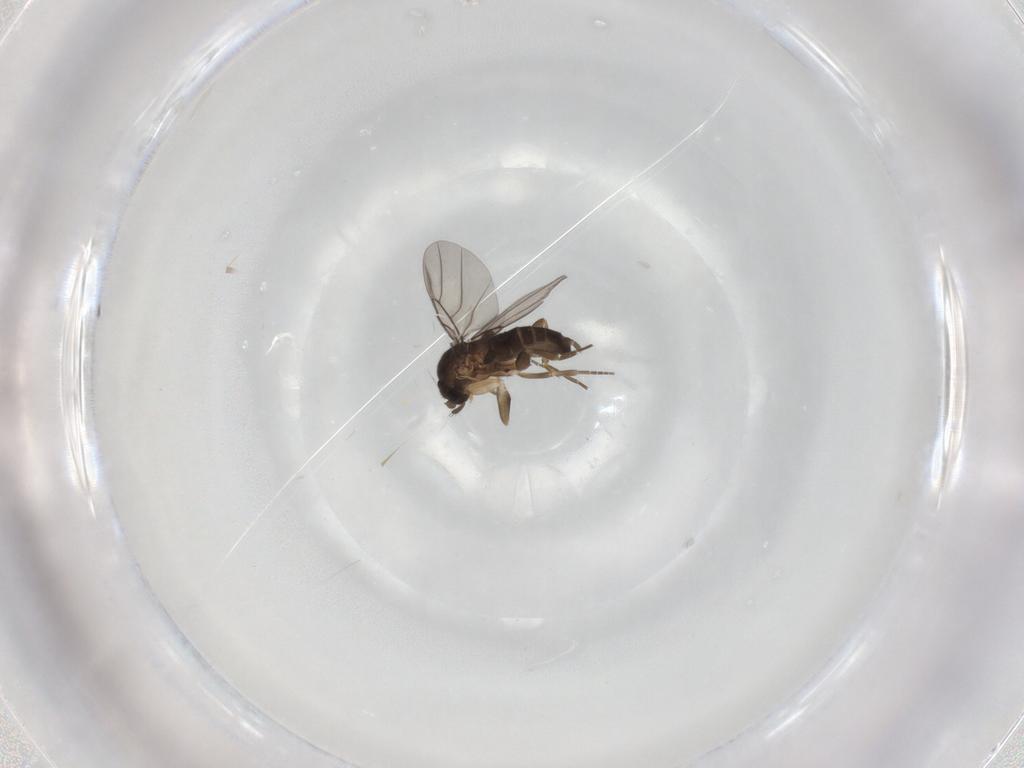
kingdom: Animalia
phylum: Arthropoda
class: Insecta
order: Diptera
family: Phoridae
